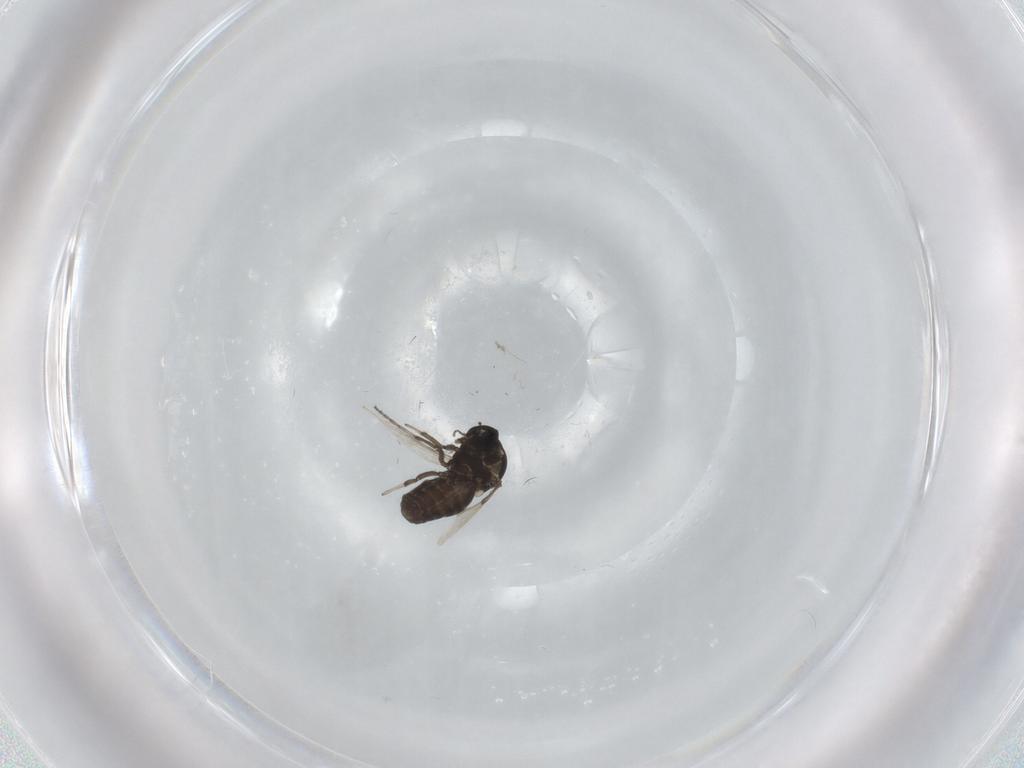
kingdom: Animalia
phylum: Arthropoda
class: Insecta
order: Diptera
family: Ceratopogonidae
